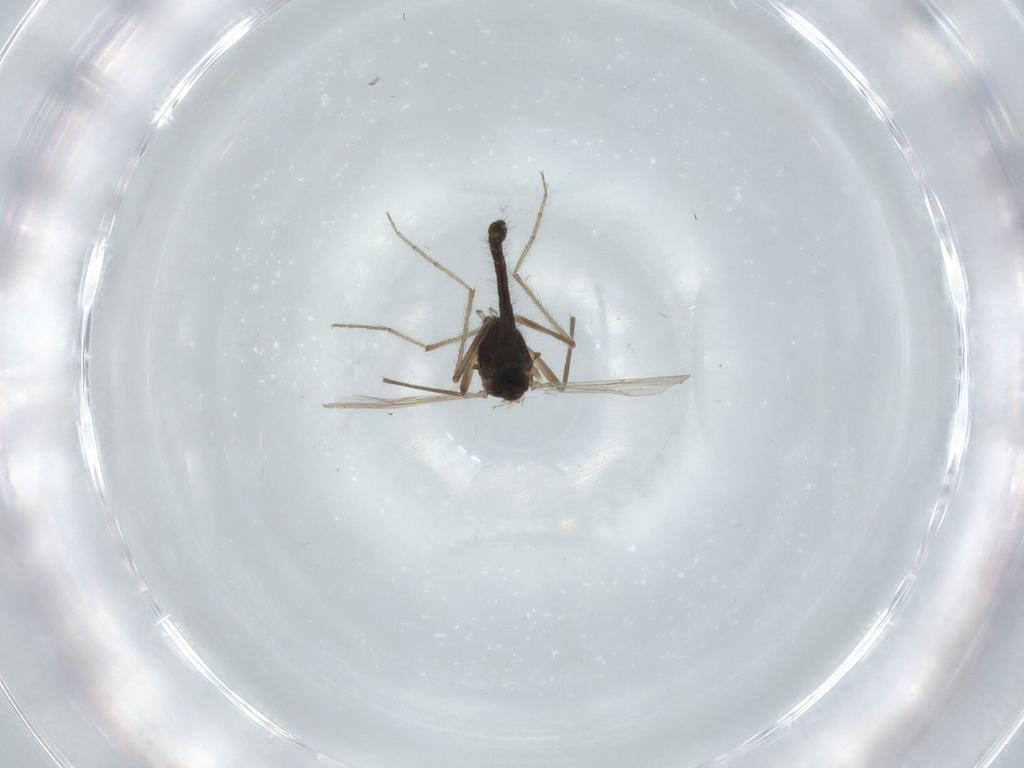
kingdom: Animalia
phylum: Arthropoda
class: Insecta
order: Diptera
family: Chironomidae
